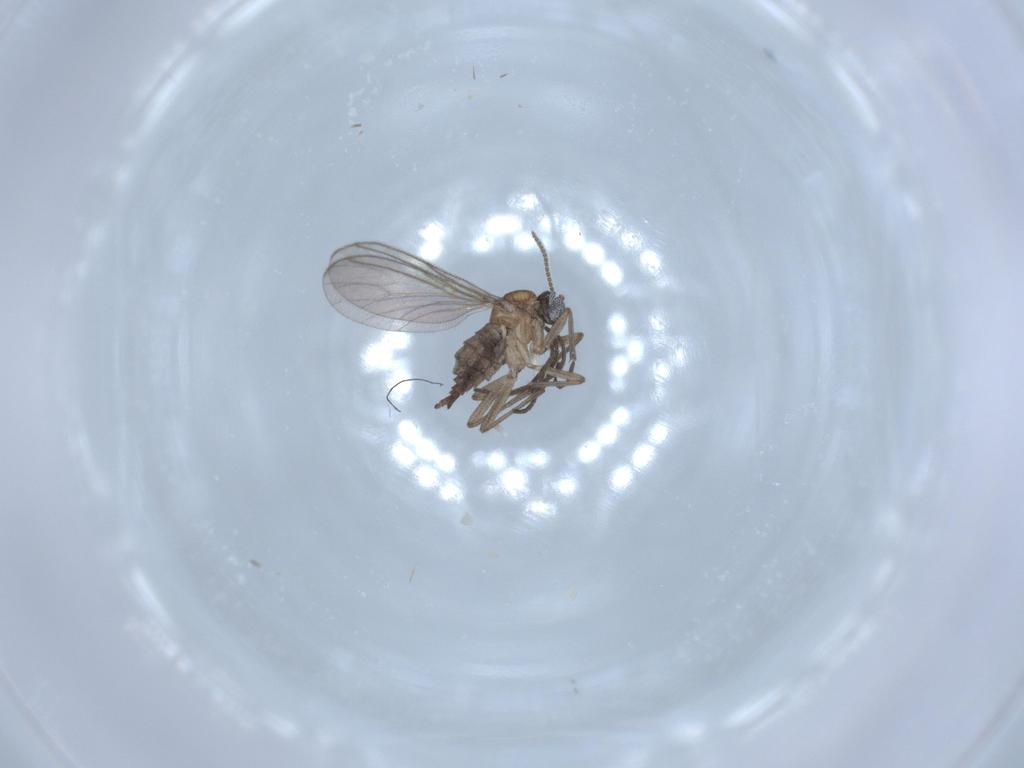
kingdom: Animalia
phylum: Arthropoda
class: Insecta
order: Diptera
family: Sciaridae
